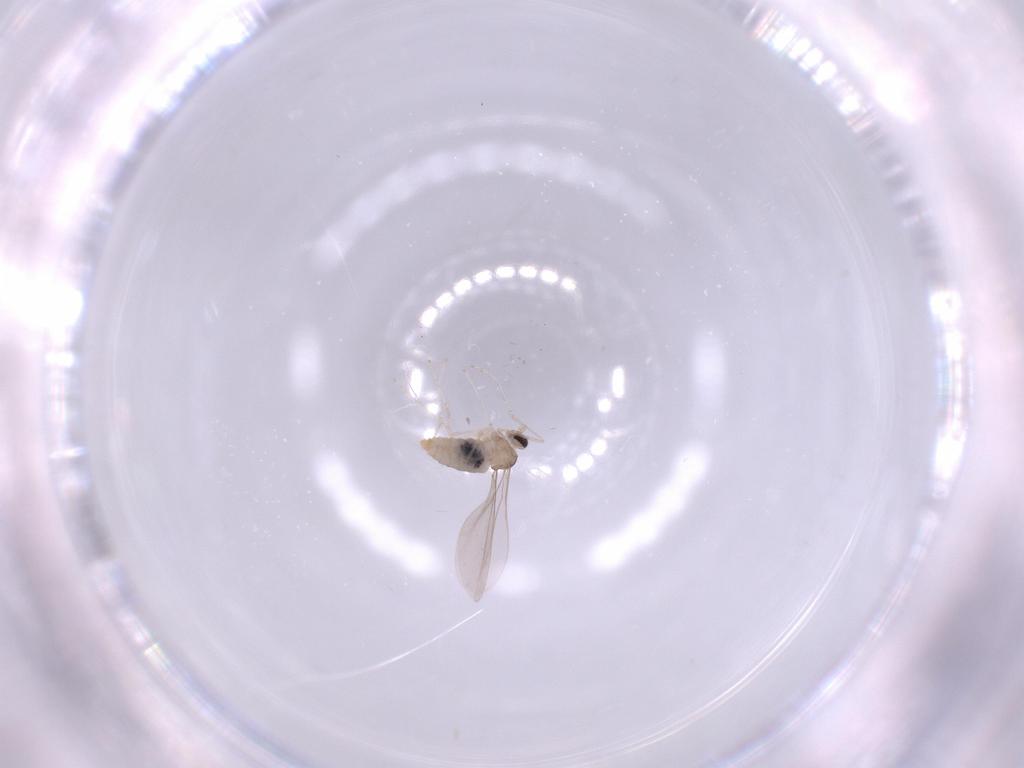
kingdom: Animalia
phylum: Arthropoda
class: Insecta
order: Diptera
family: Cecidomyiidae
